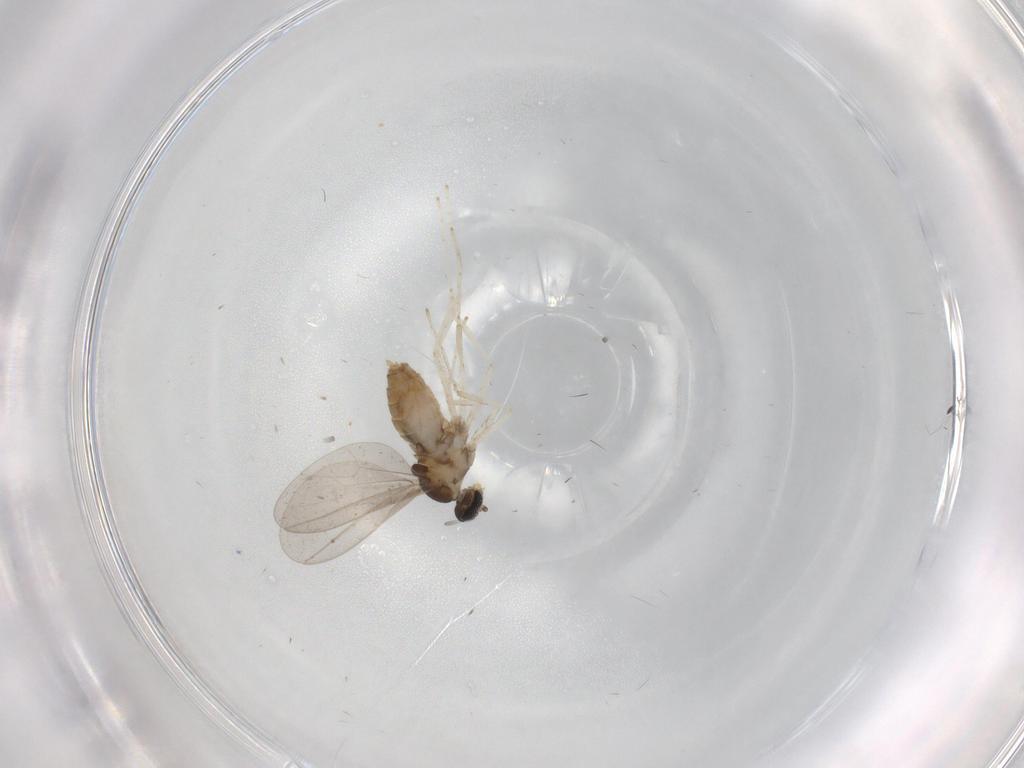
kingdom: Animalia
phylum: Arthropoda
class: Insecta
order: Diptera
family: Cecidomyiidae
